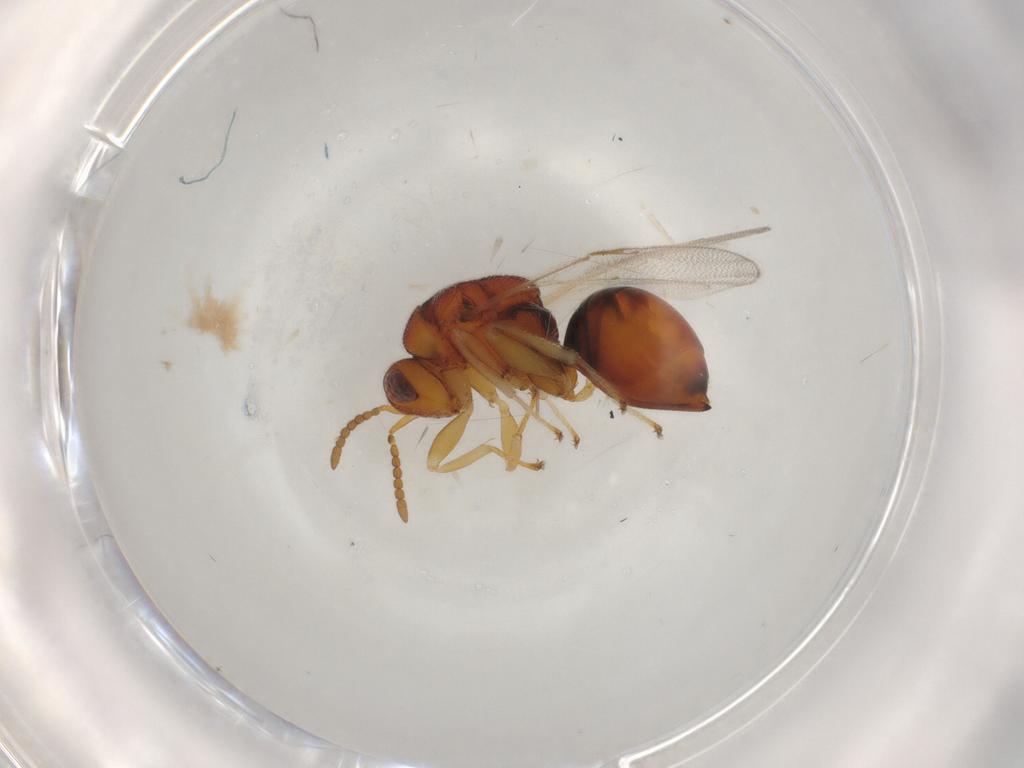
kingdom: Animalia
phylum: Arthropoda
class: Insecta
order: Hymenoptera
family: Eurytomidae
